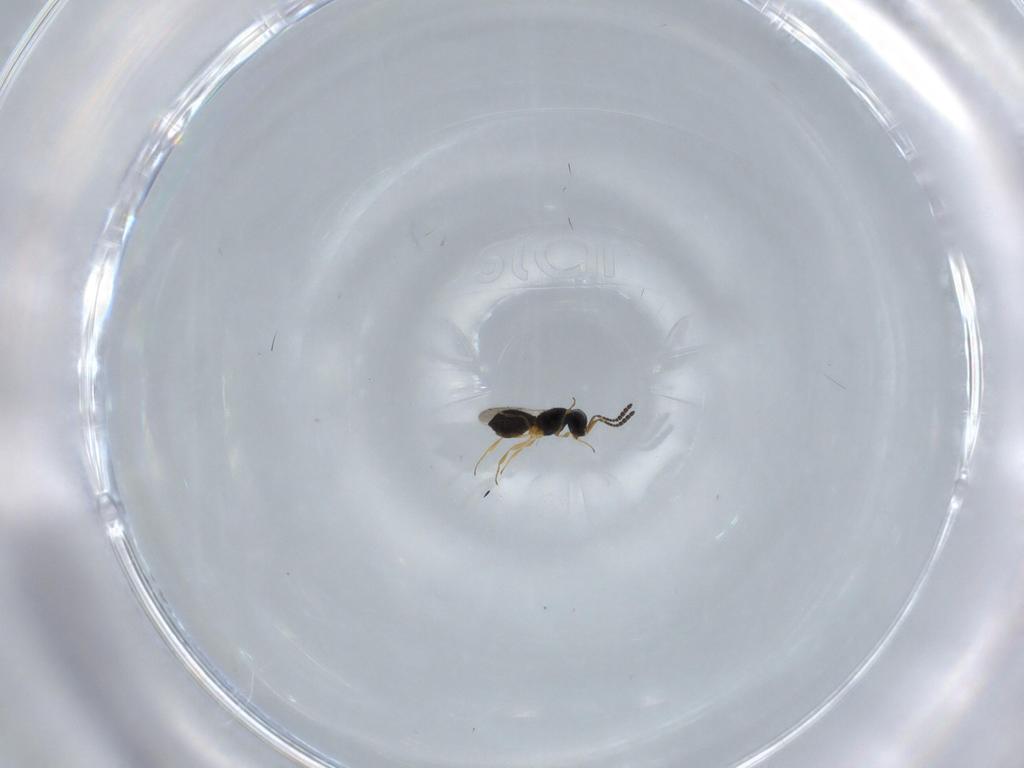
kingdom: Animalia
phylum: Arthropoda
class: Insecta
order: Hymenoptera
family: Scelionidae
